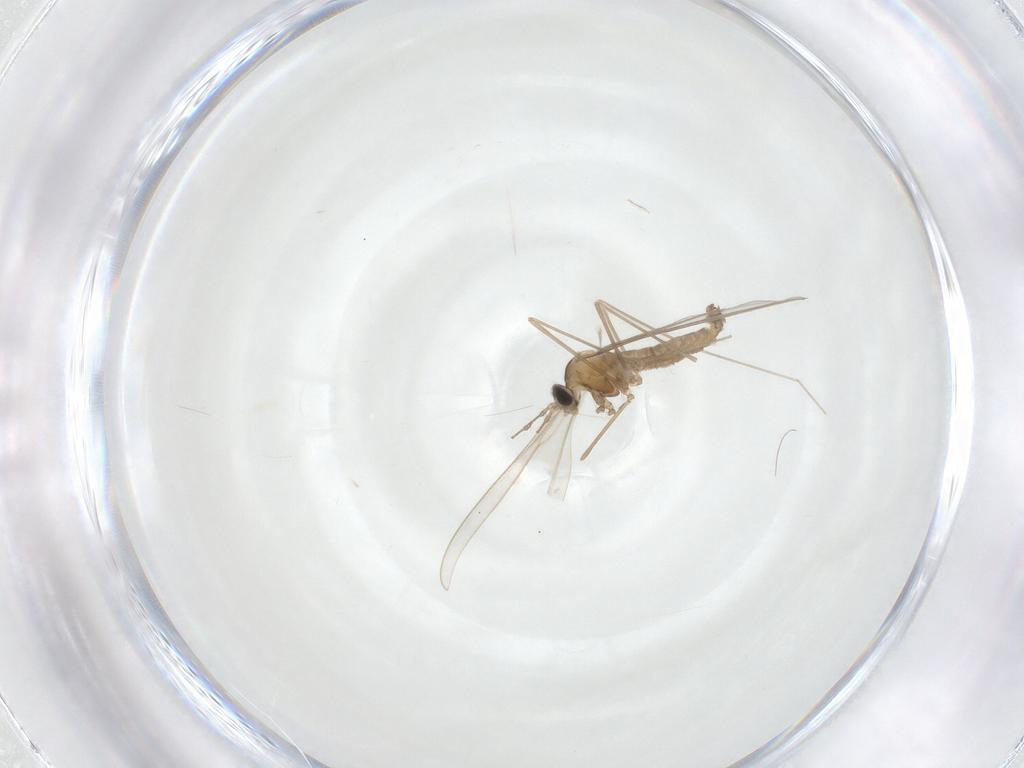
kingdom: Animalia
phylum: Arthropoda
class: Insecta
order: Diptera
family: Cecidomyiidae
